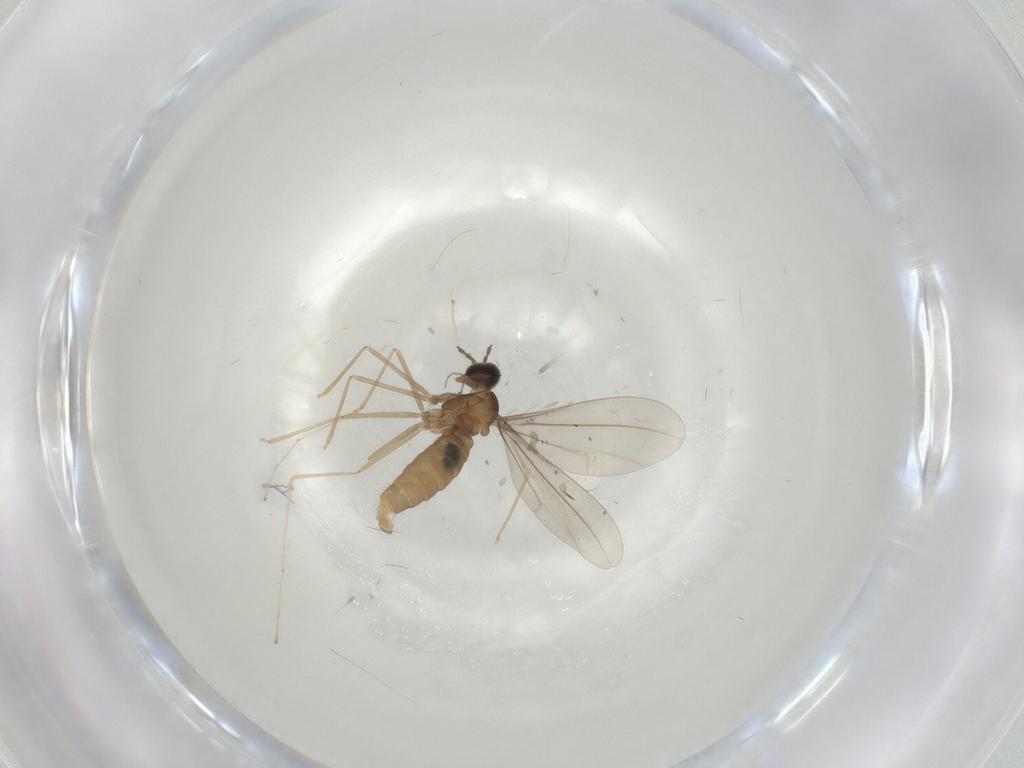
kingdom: Animalia
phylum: Arthropoda
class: Insecta
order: Diptera
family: Cecidomyiidae
